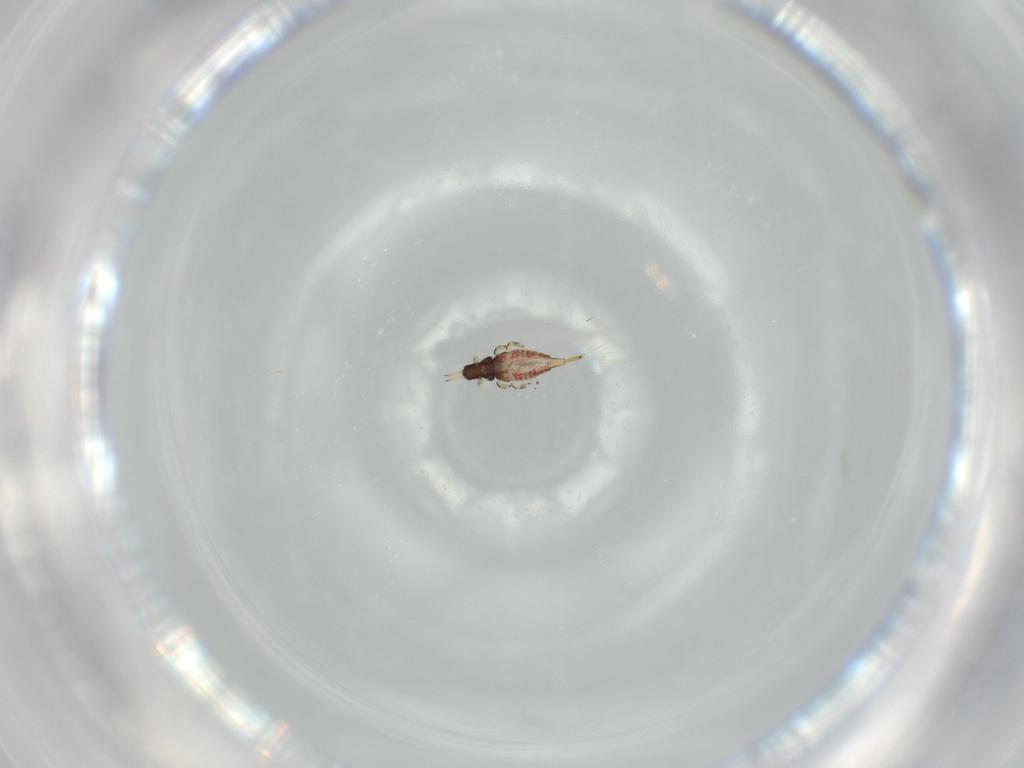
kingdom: Animalia
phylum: Arthropoda
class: Insecta
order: Thysanoptera
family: Phlaeothripidae
